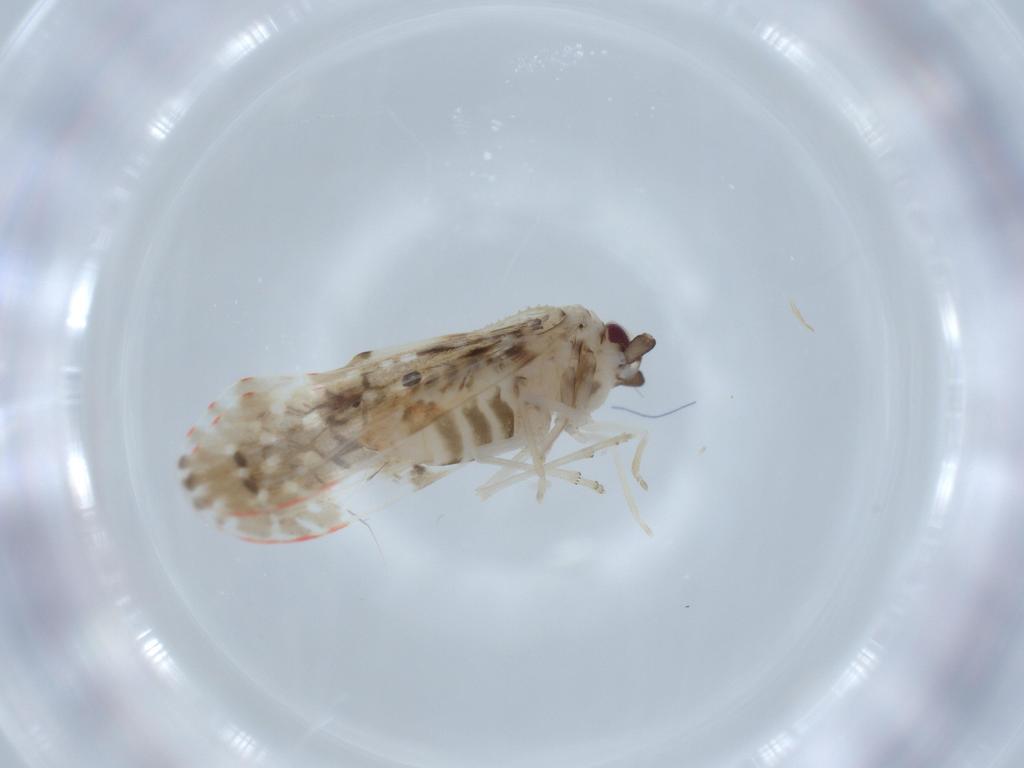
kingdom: Animalia
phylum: Arthropoda
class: Insecta
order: Hemiptera
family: Derbidae
